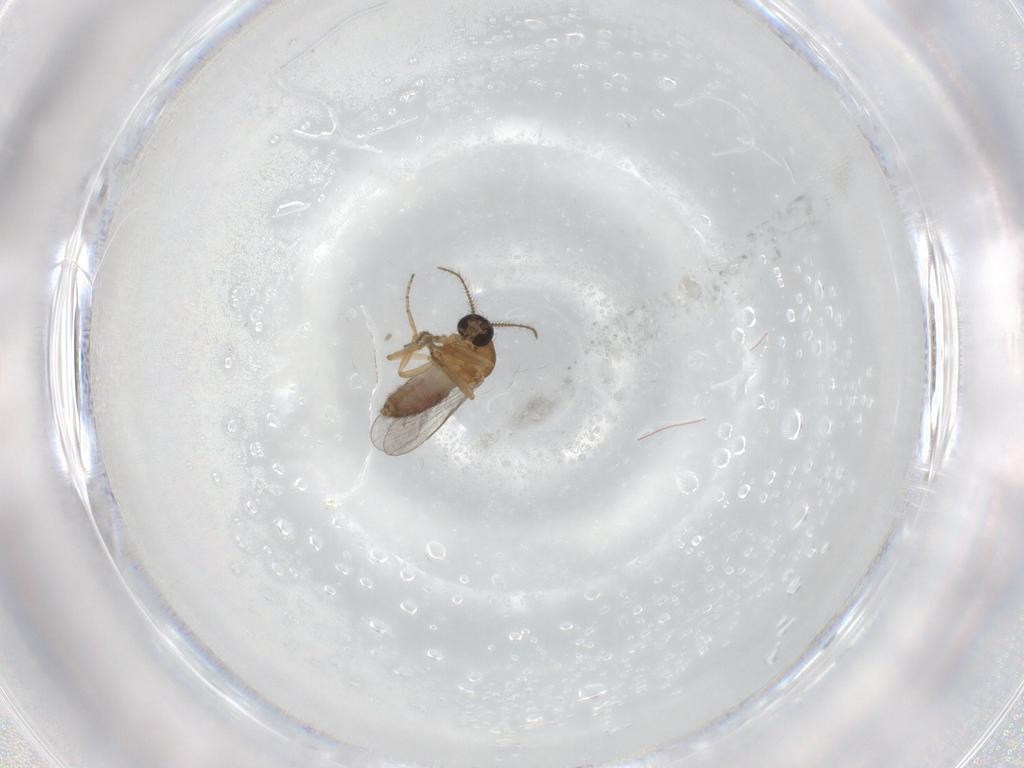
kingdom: Animalia
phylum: Arthropoda
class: Insecta
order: Diptera
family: Ceratopogonidae
